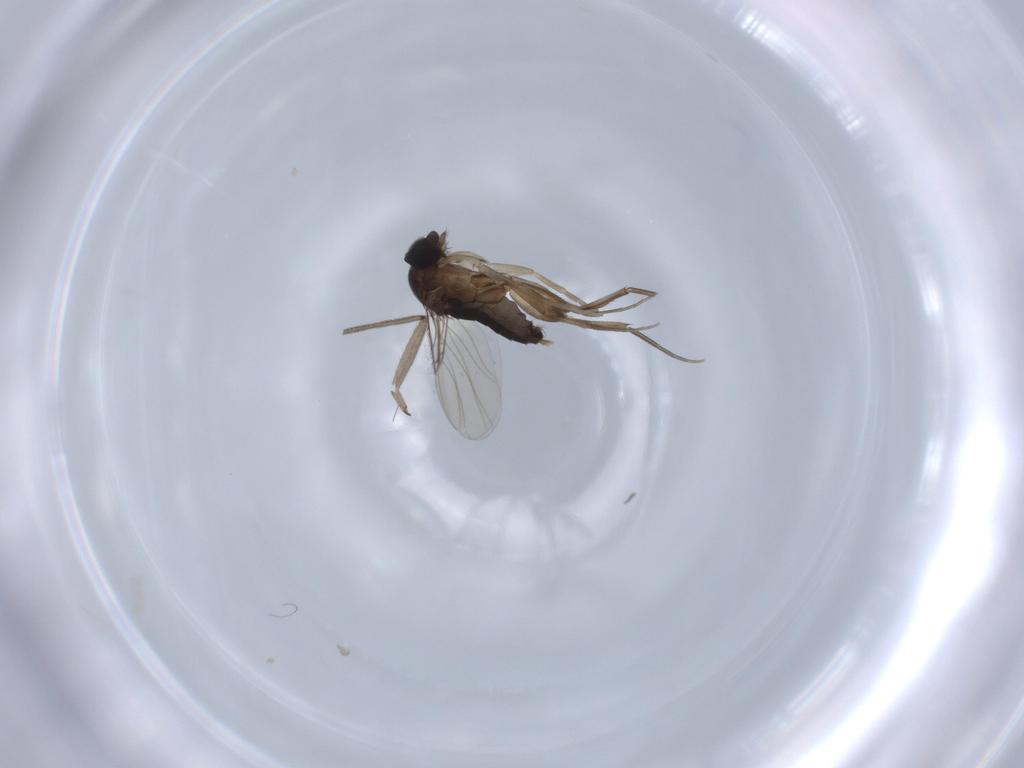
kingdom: Animalia
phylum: Arthropoda
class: Insecta
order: Diptera
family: Phoridae
